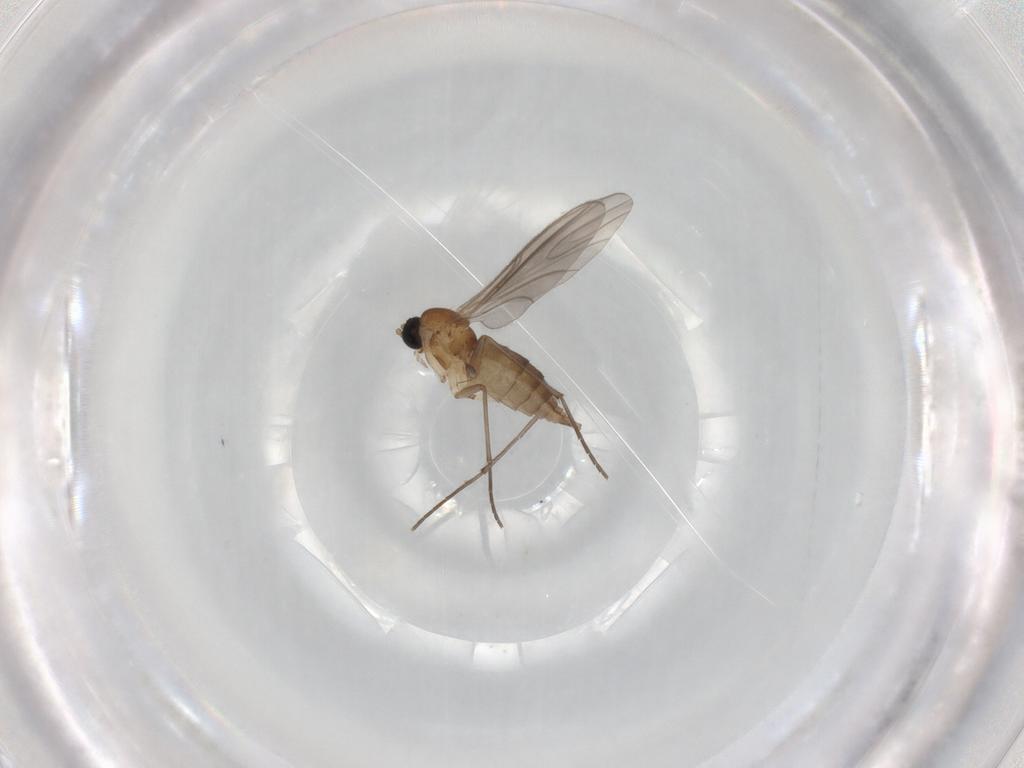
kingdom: Animalia
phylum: Arthropoda
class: Insecta
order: Diptera
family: Sciaridae
